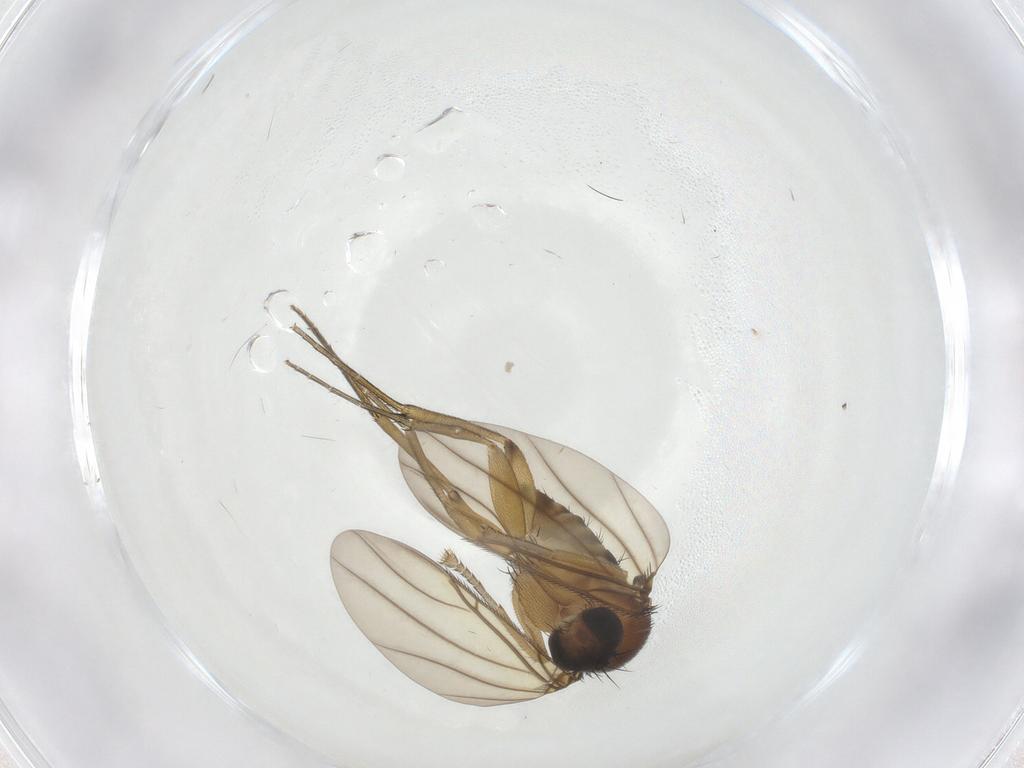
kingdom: Animalia
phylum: Arthropoda
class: Insecta
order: Diptera
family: Phoridae
